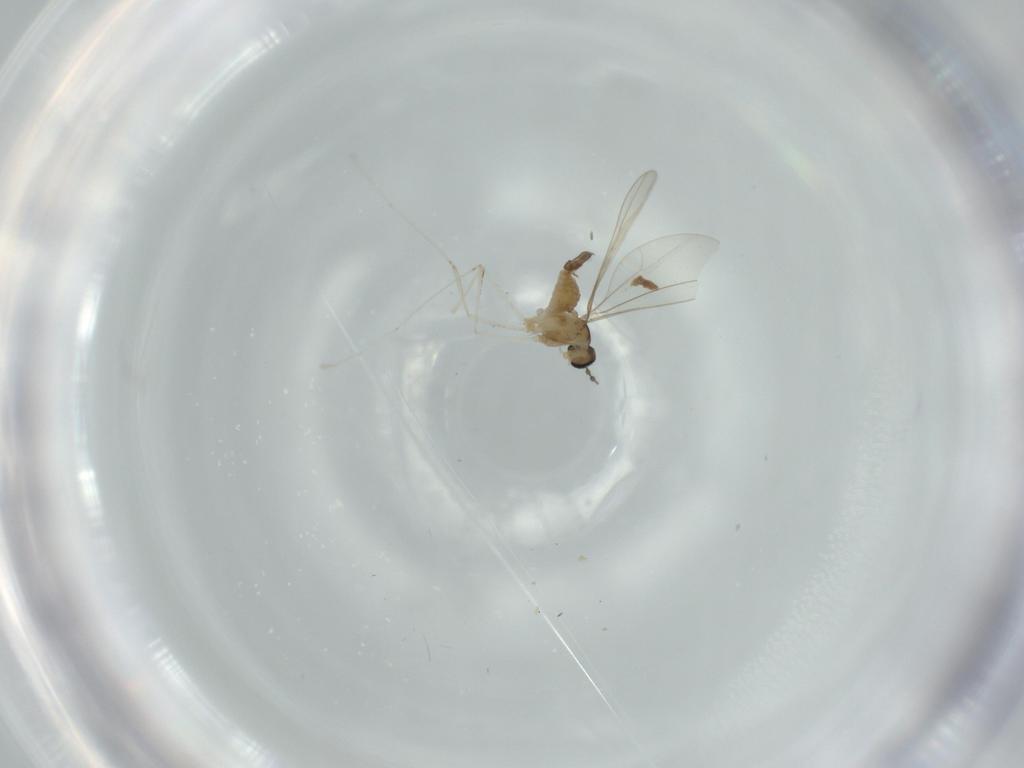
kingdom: Animalia
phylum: Arthropoda
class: Insecta
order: Diptera
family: Cecidomyiidae
